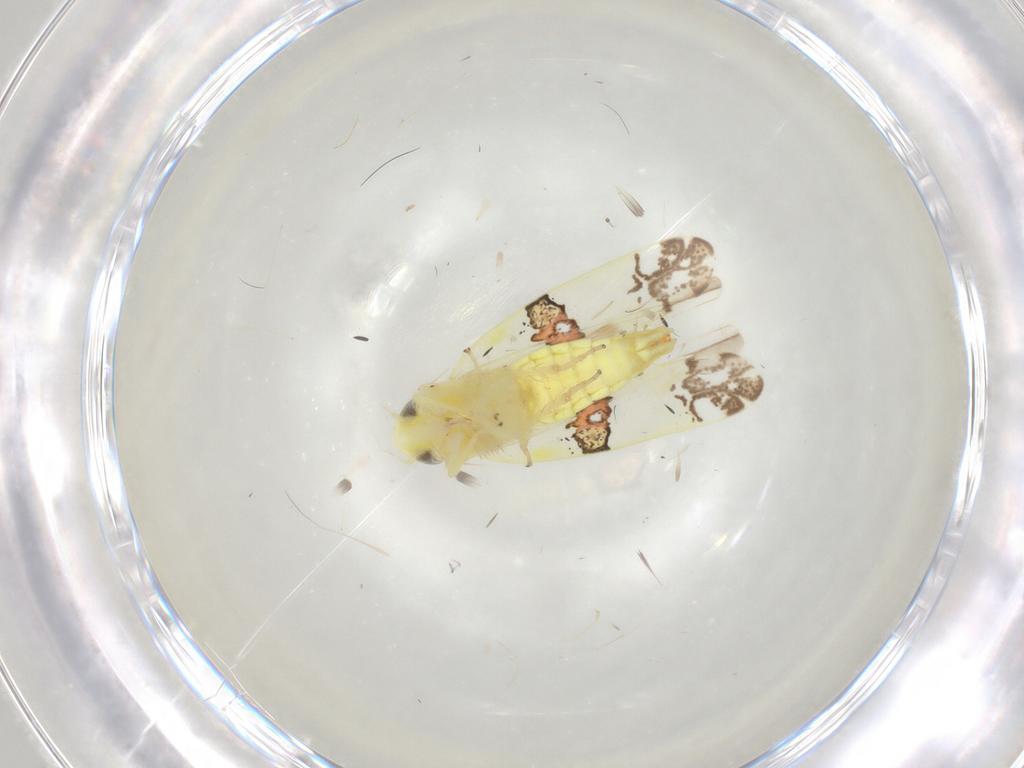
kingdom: Animalia
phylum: Arthropoda
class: Insecta
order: Hemiptera
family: Cicadellidae
